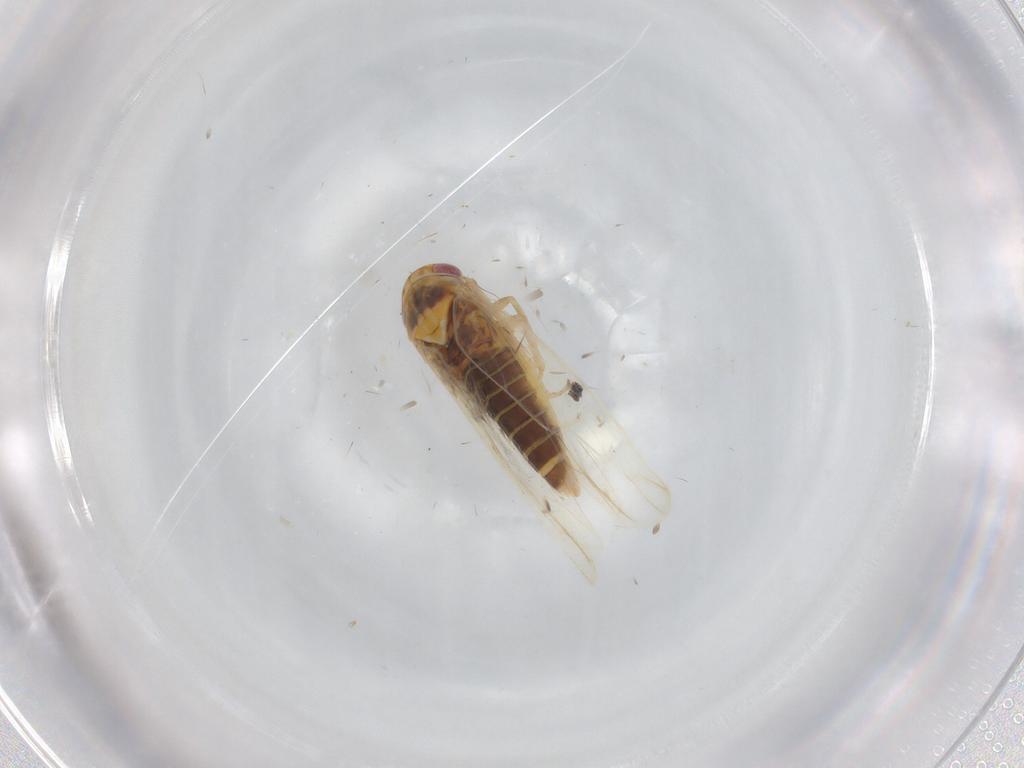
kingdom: Animalia
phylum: Arthropoda
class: Insecta
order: Hemiptera
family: Cicadellidae
